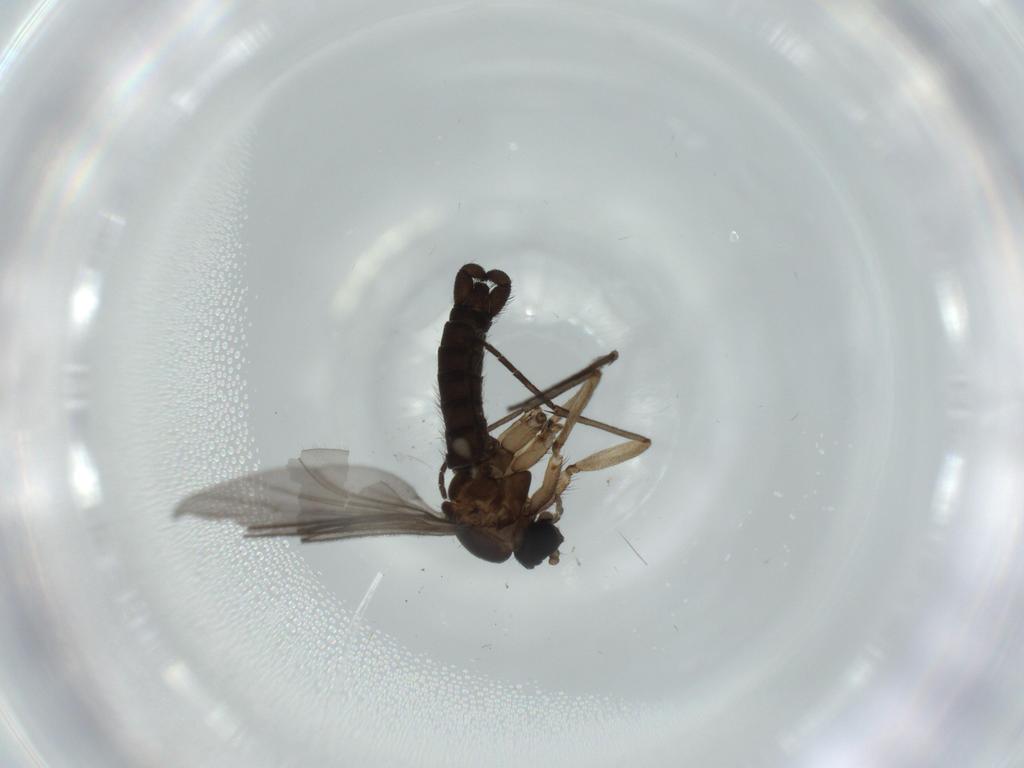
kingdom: Animalia
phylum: Arthropoda
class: Insecta
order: Diptera
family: Sciaridae
